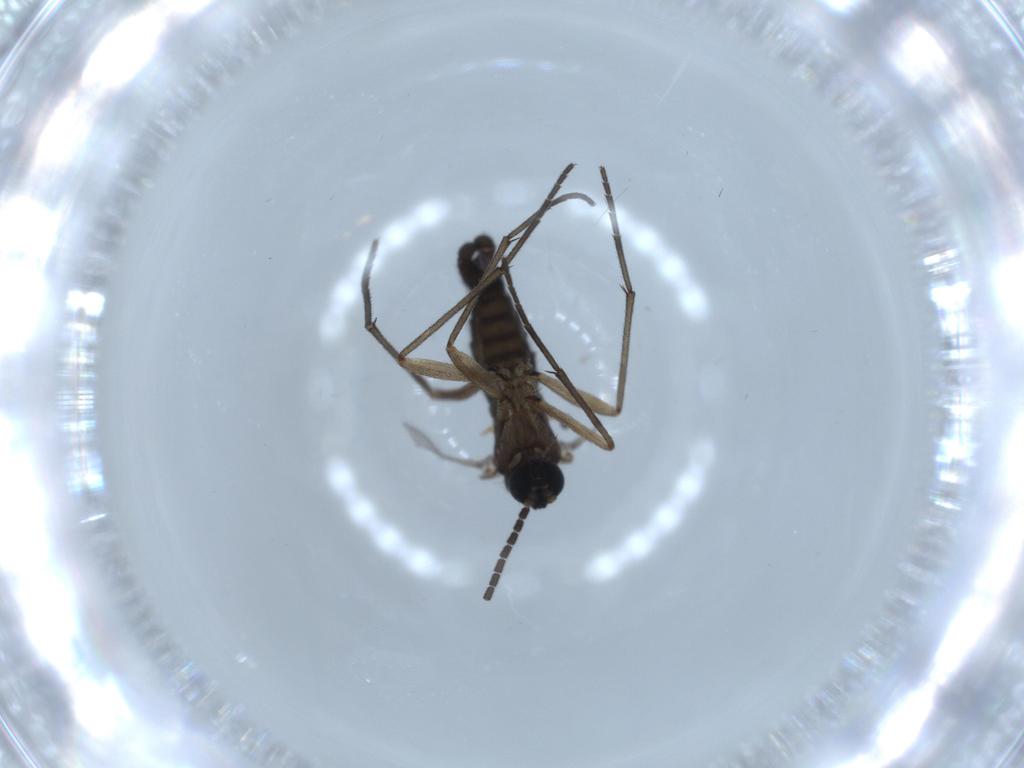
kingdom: Animalia
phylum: Arthropoda
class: Insecta
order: Diptera
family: Sciaridae
